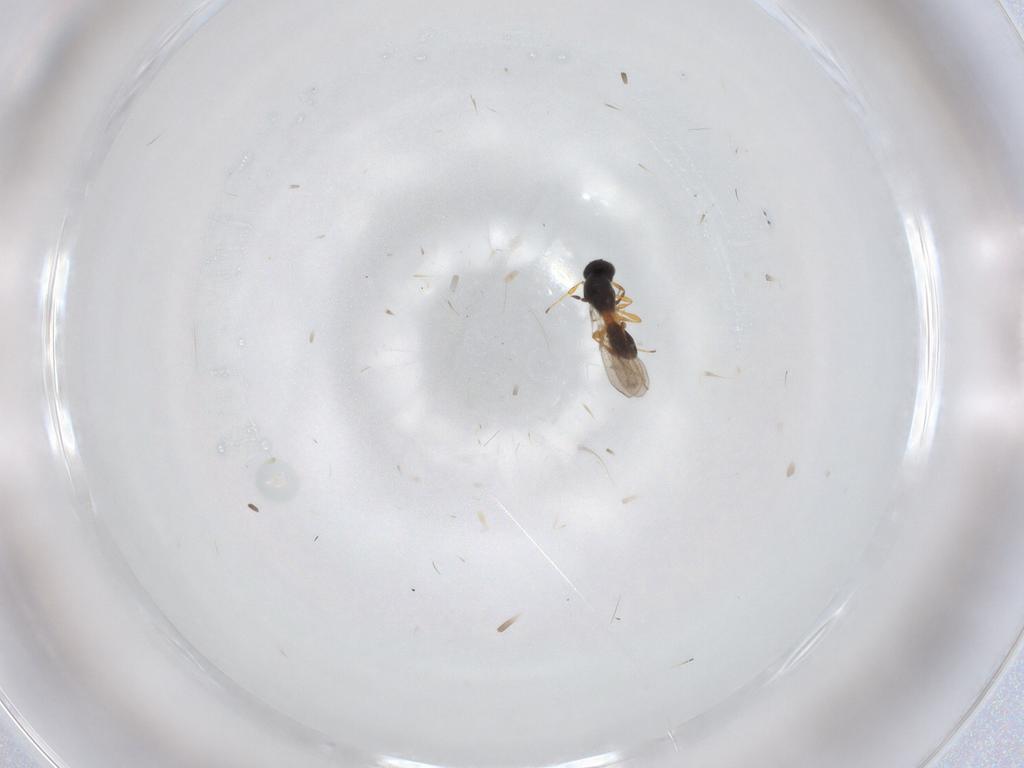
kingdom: Animalia
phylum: Arthropoda
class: Insecta
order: Hymenoptera
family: Platygastridae
